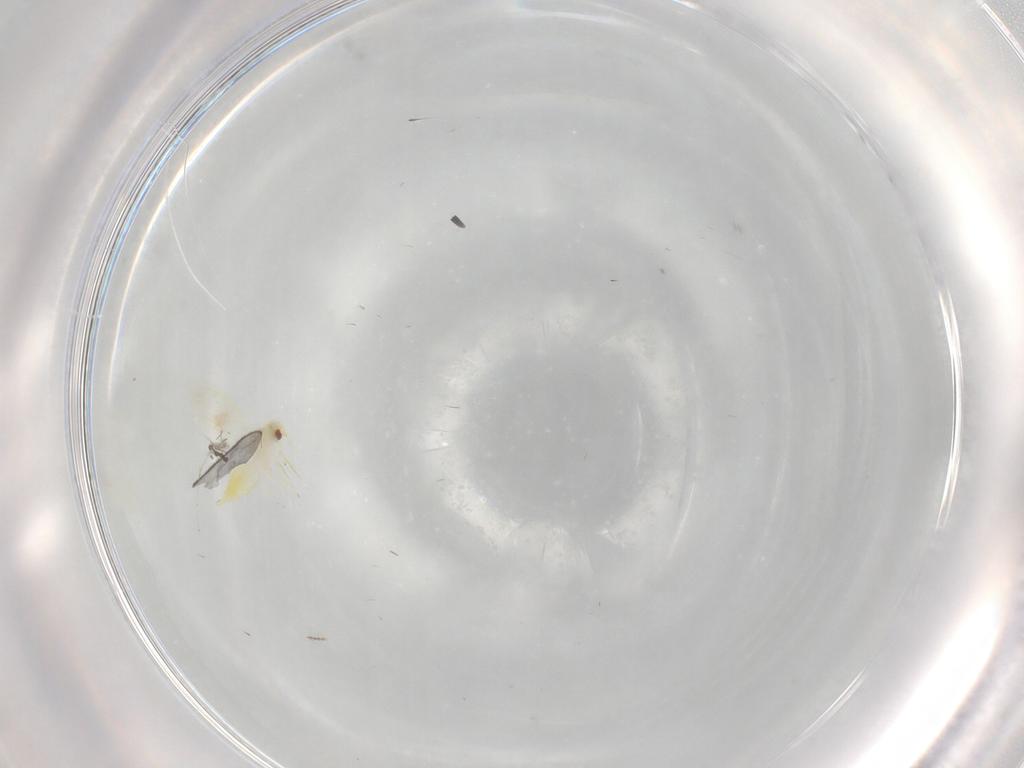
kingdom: Animalia
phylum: Arthropoda
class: Insecta
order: Hemiptera
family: Aleyrodidae
